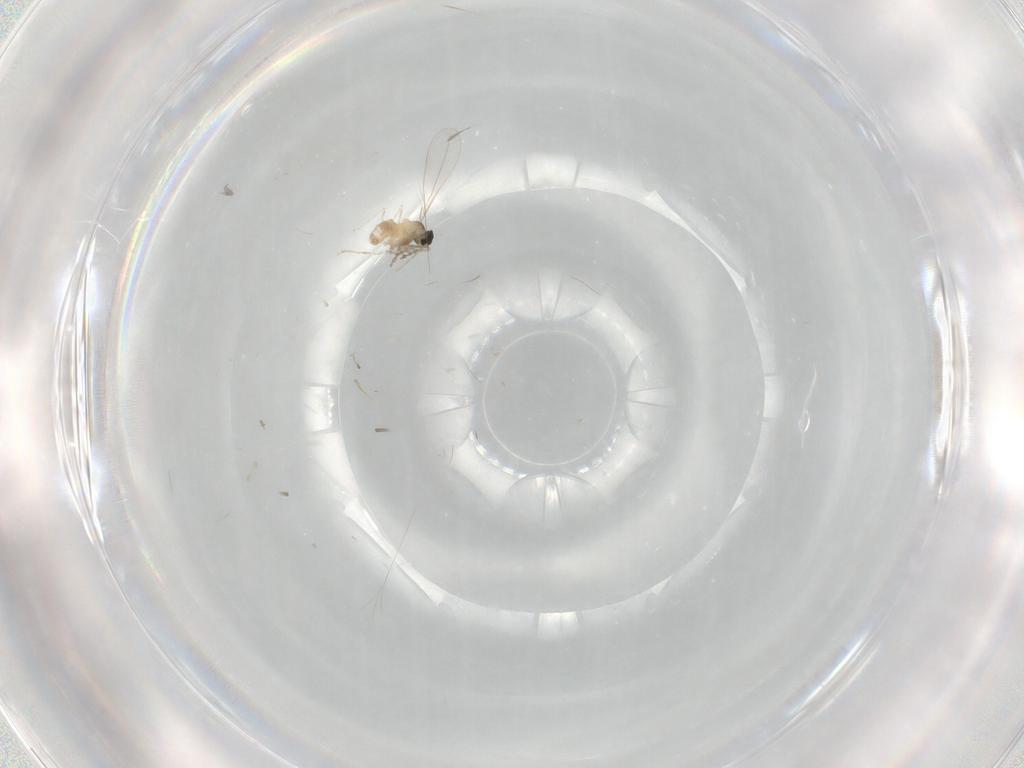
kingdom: Animalia
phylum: Arthropoda
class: Insecta
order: Diptera
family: Cecidomyiidae
